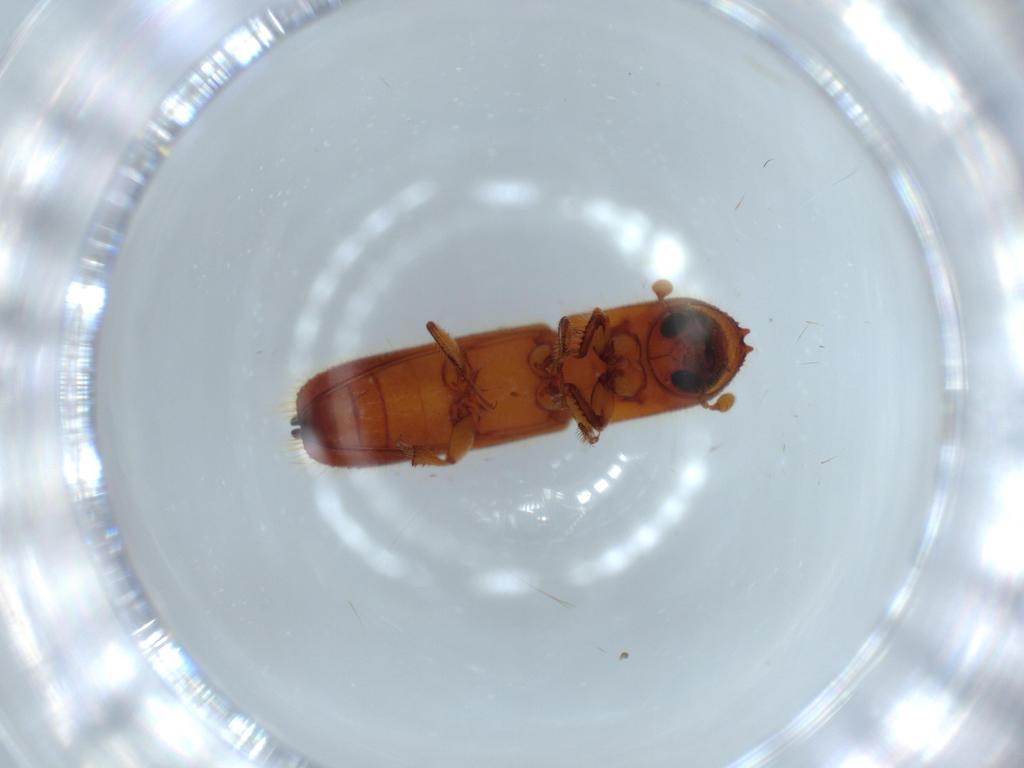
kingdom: Animalia
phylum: Arthropoda
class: Insecta
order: Coleoptera
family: Curculionidae
